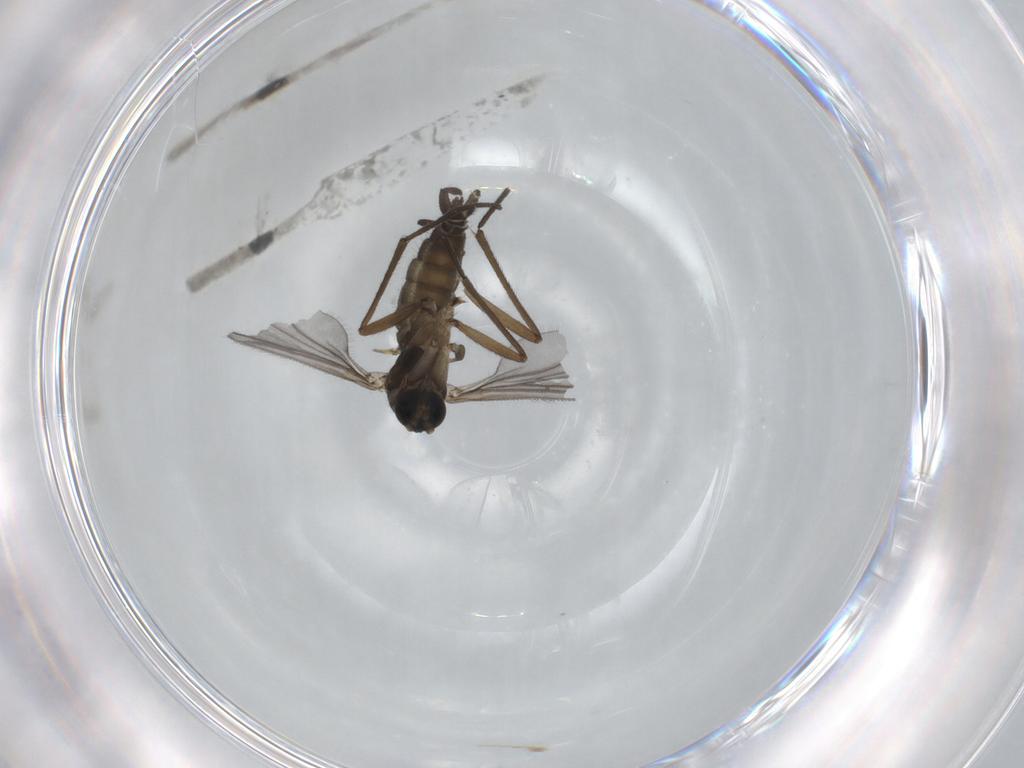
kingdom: Animalia
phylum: Arthropoda
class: Insecta
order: Diptera
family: Sciaridae
